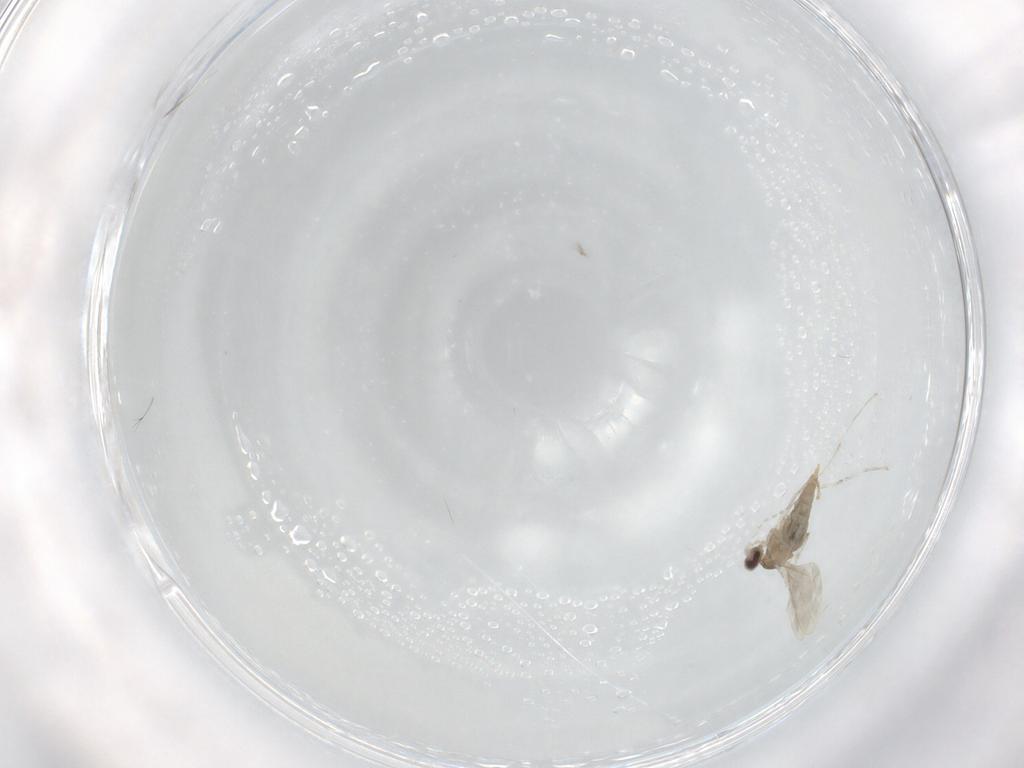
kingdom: Animalia
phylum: Arthropoda
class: Insecta
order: Diptera
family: Cecidomyiidae
